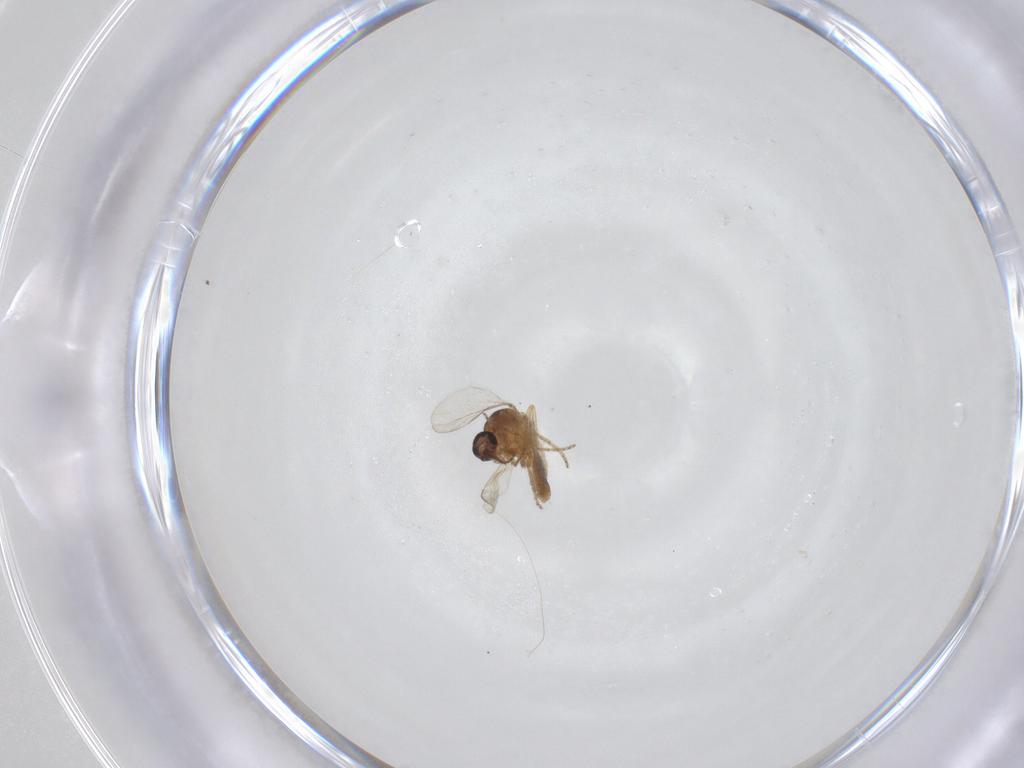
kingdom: Animalia
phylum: Arthropoda
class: Insecta
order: Diptera
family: Ceratopogonidae
